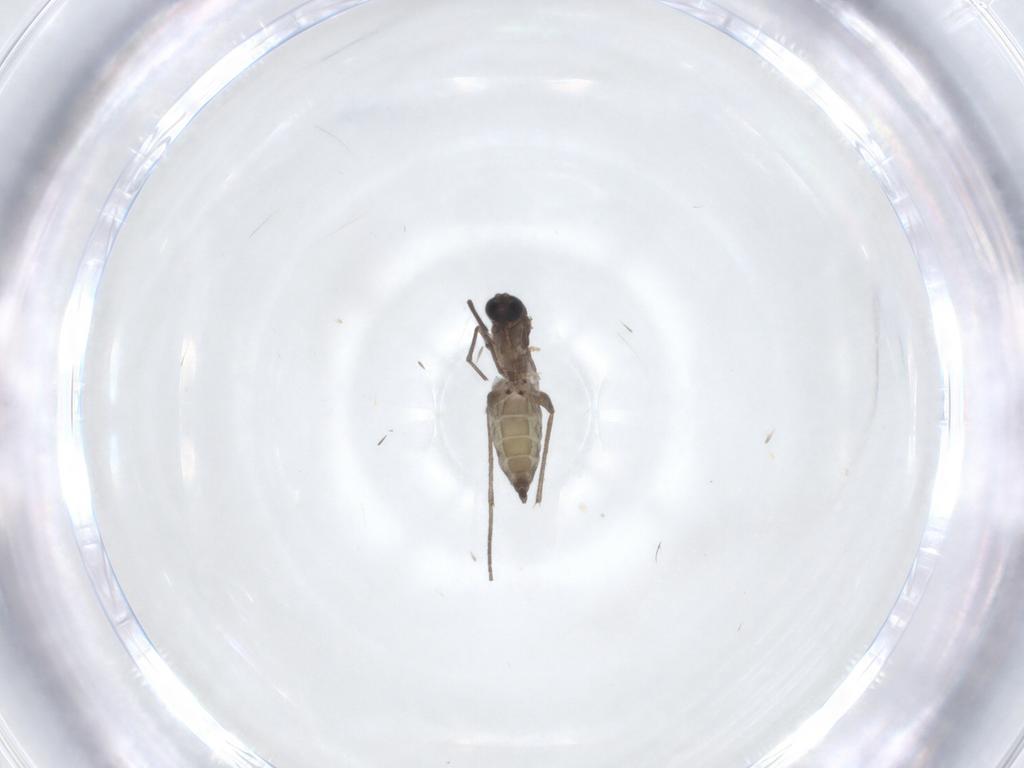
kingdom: Animalia
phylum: Arthropoda
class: Insecta
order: Diptera
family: Sciaridae
